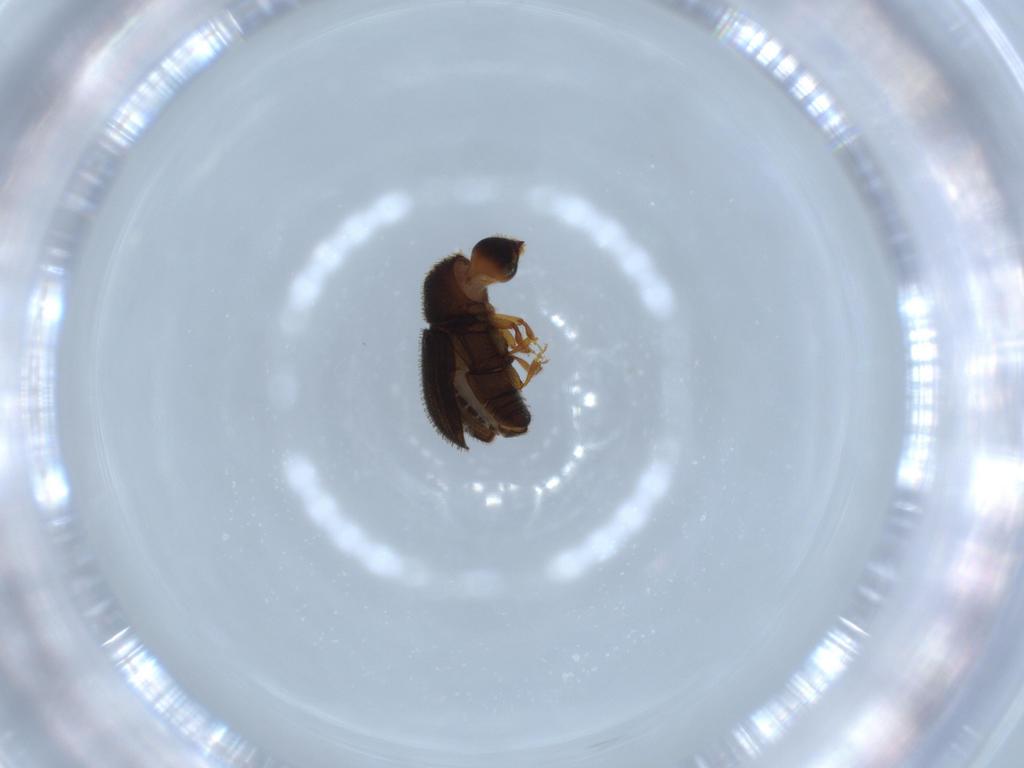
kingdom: Animalia
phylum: Arthropoda
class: Insecta
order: Coleoptera
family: Curculionidae
